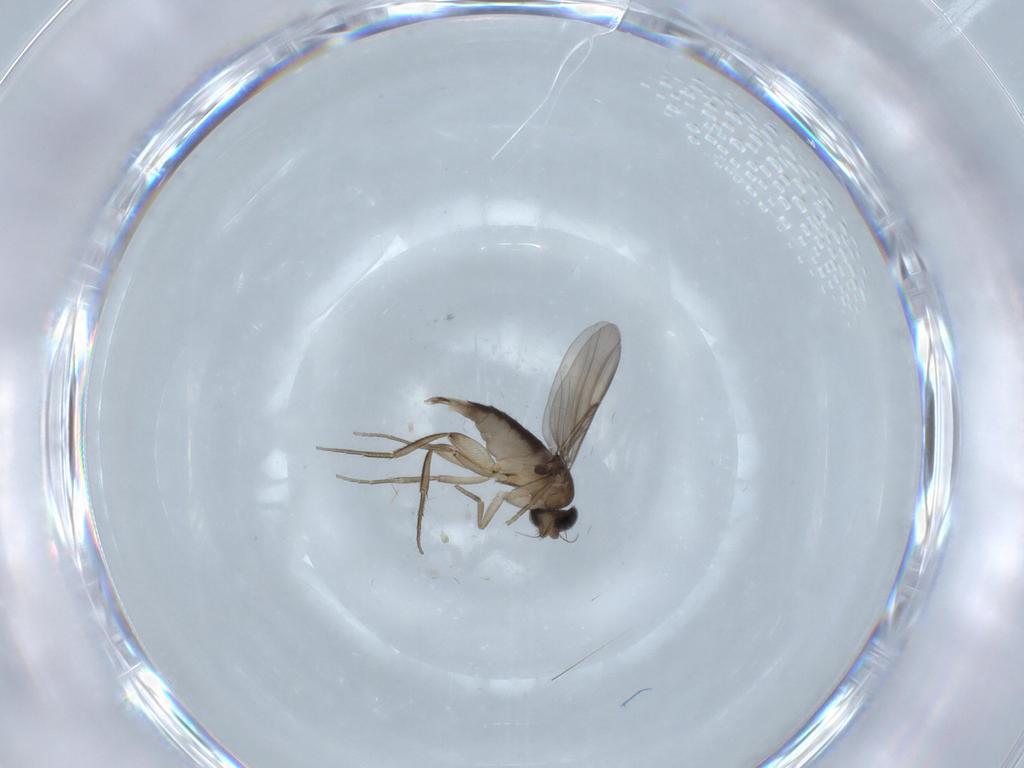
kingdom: Animalia
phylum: Arthropoda
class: Insecta
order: Diptera
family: Phoridae
